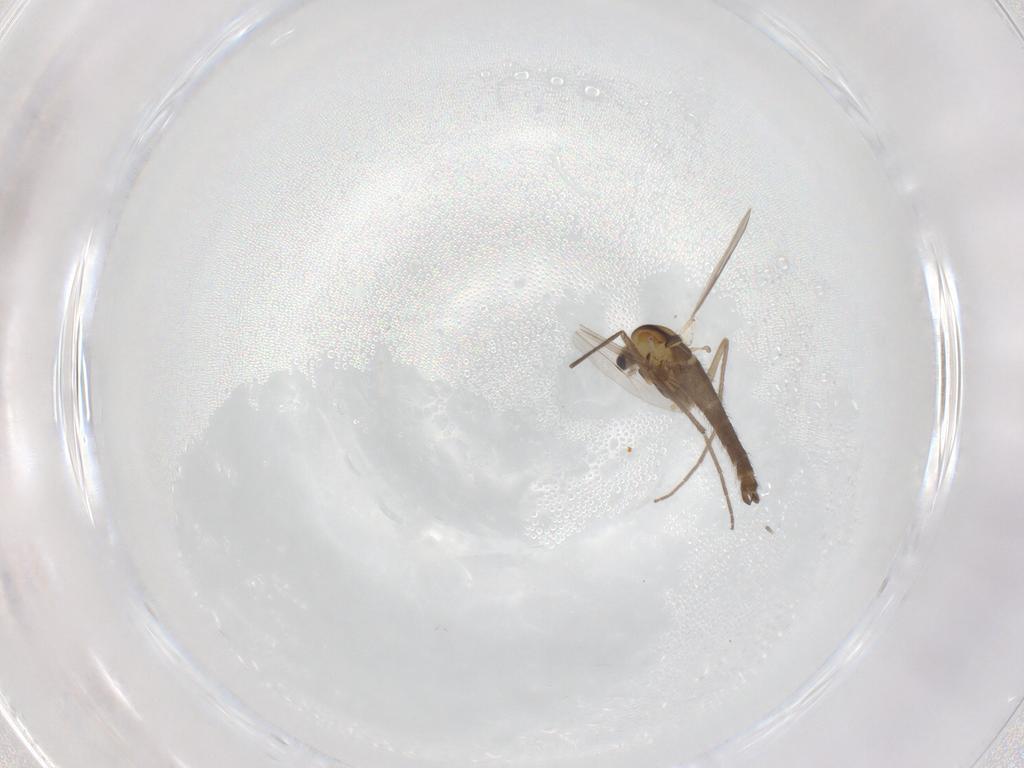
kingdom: Animalia
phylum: Arthropoda
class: Insecta
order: Diptera
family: Chironomidae
